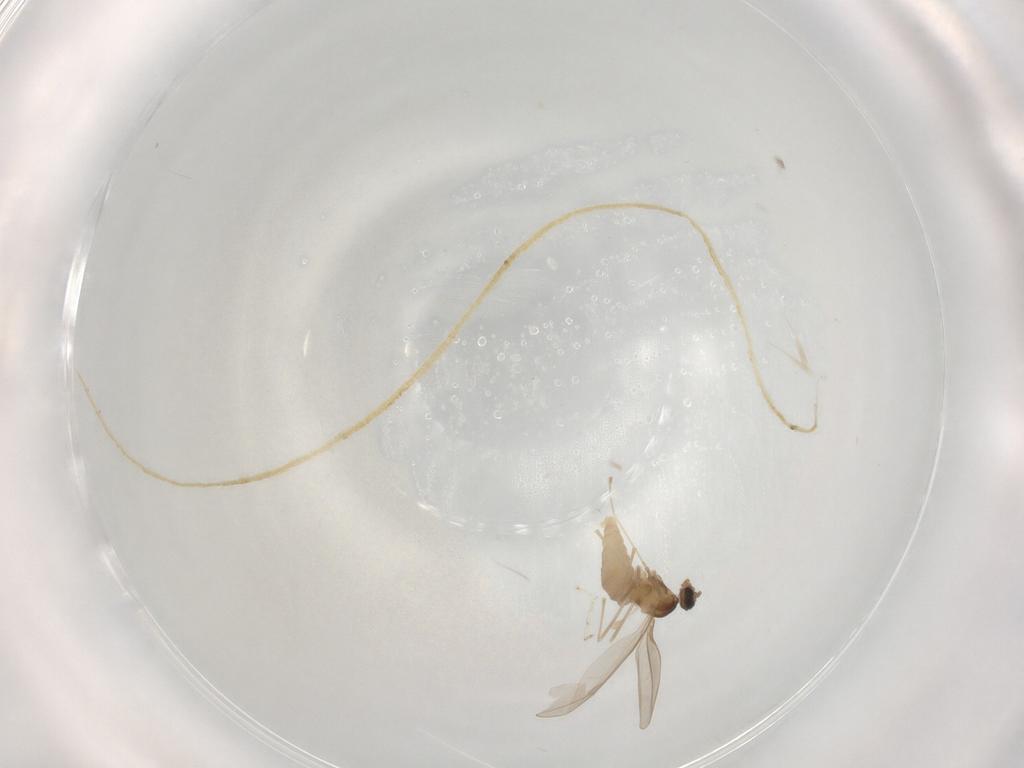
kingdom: Animalia
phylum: Arthropoda
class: Insecta
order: Diptera
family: Cecidomyiidae
